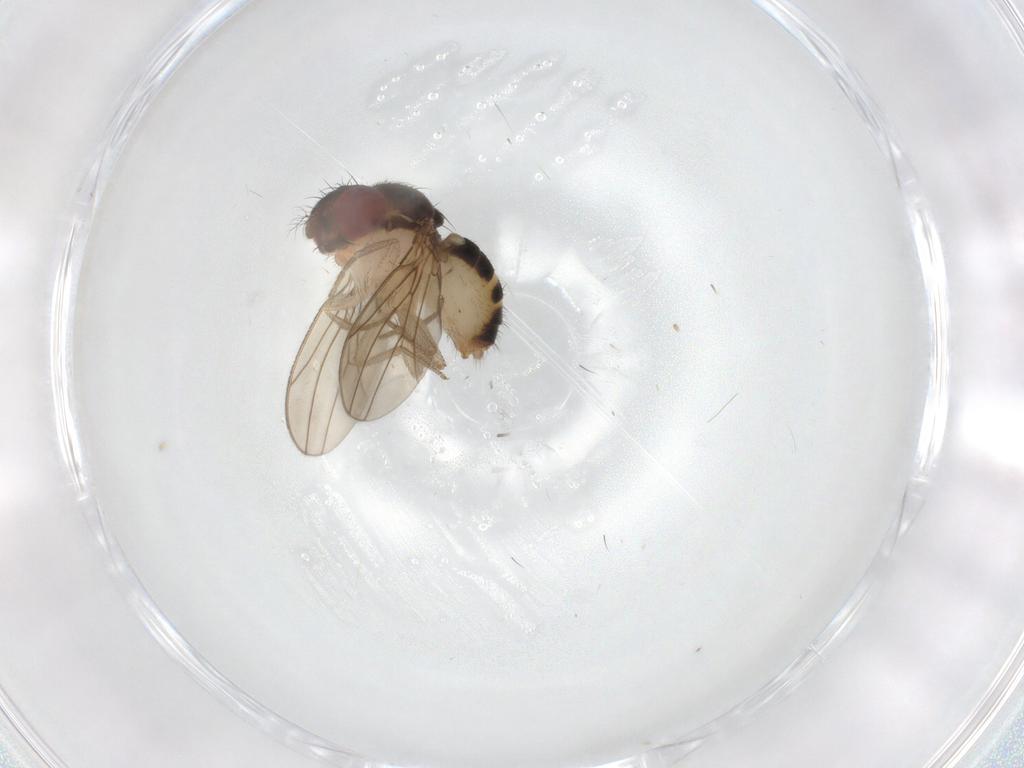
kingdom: Animalia
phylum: Arthropoda
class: Insecta
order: Diptera
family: Drosophilidae
